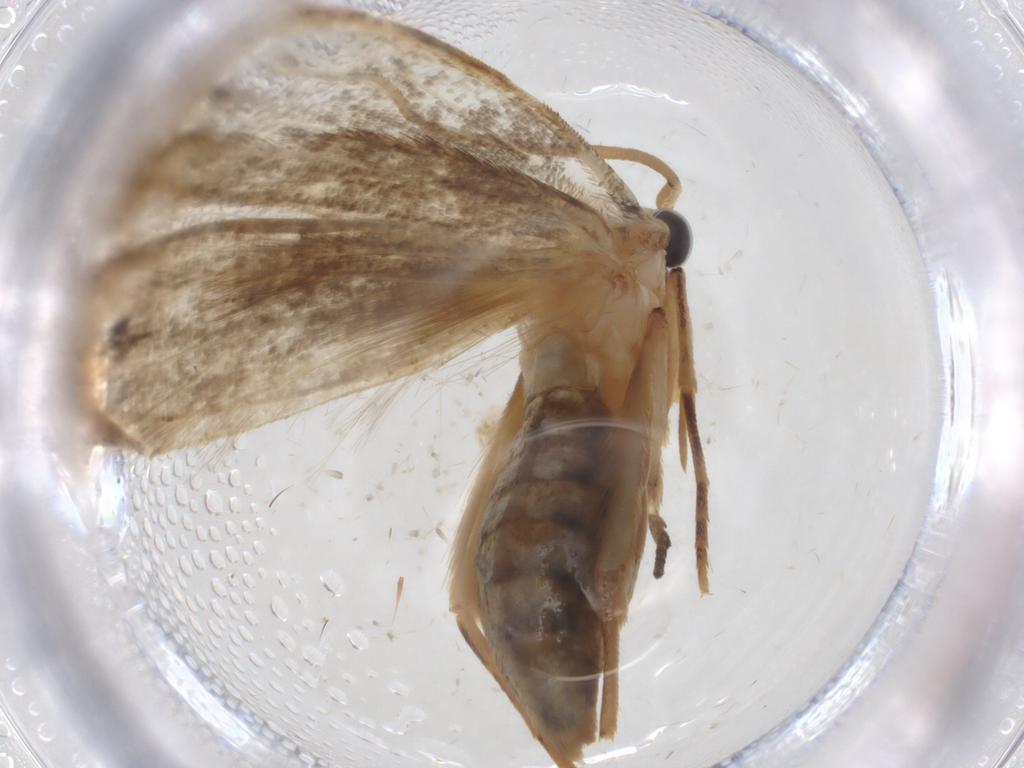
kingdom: Animalia
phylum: Arthropoda
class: Insecta
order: Lepidoptera
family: Tineidae
